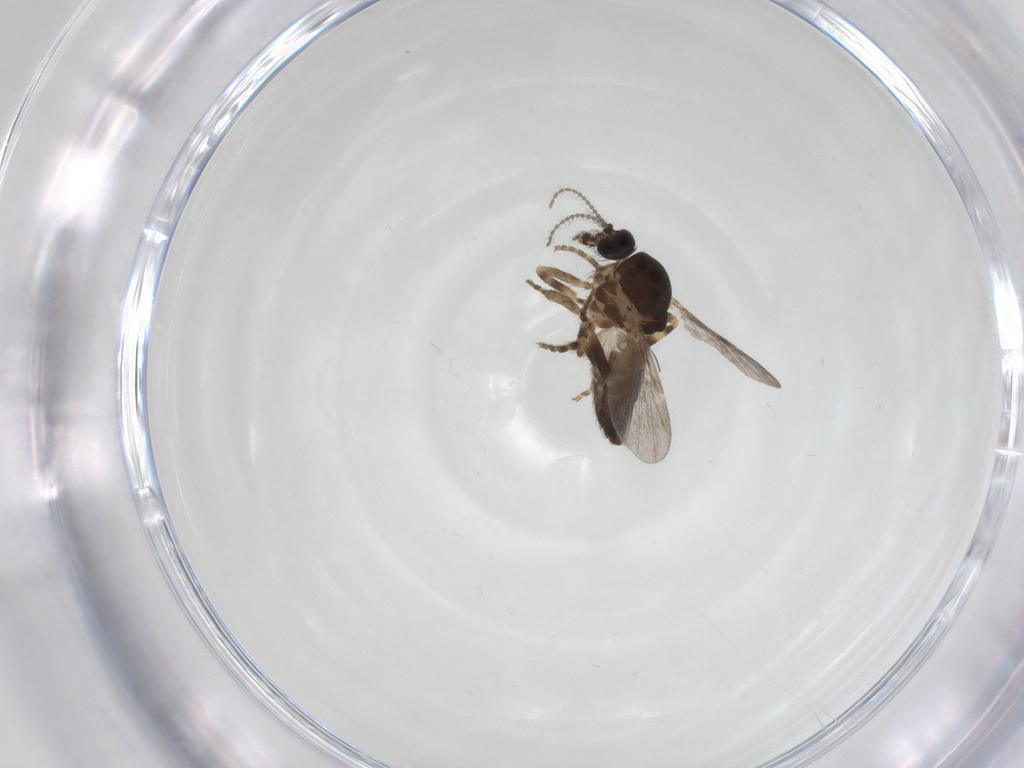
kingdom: Animalia
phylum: Arthropoda
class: Insecta
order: Diptera
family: Ceratopogonidae
